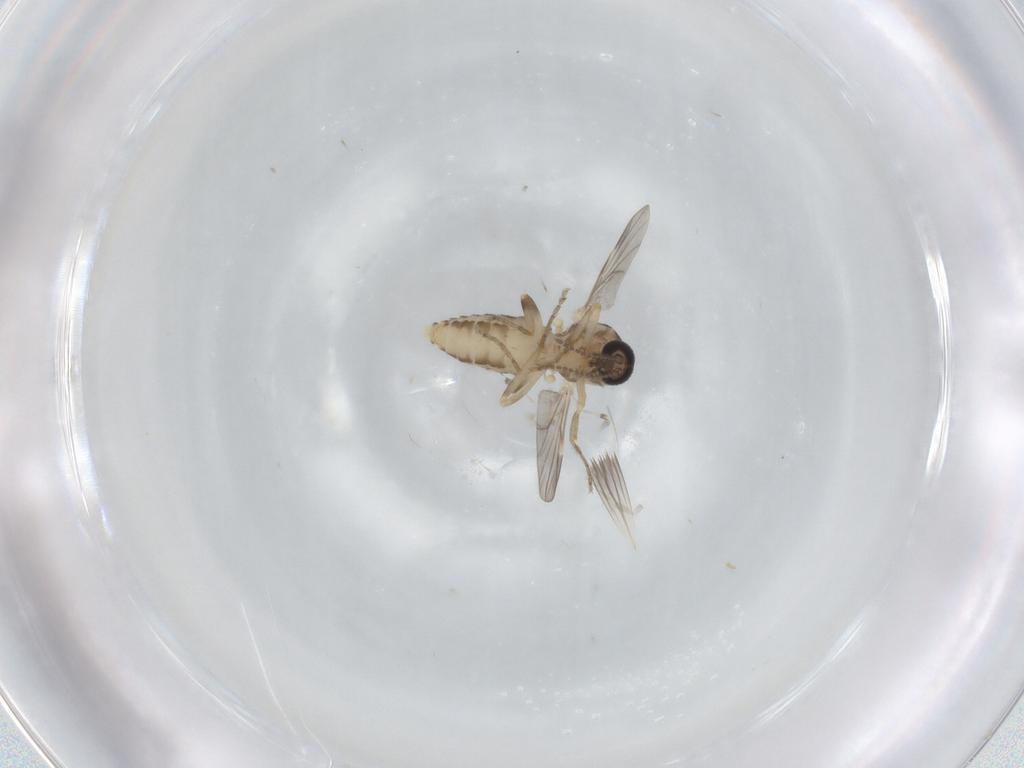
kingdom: Animalia
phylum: Arthropoda
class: Insecta
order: Diptera
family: Ceratopogonidae
